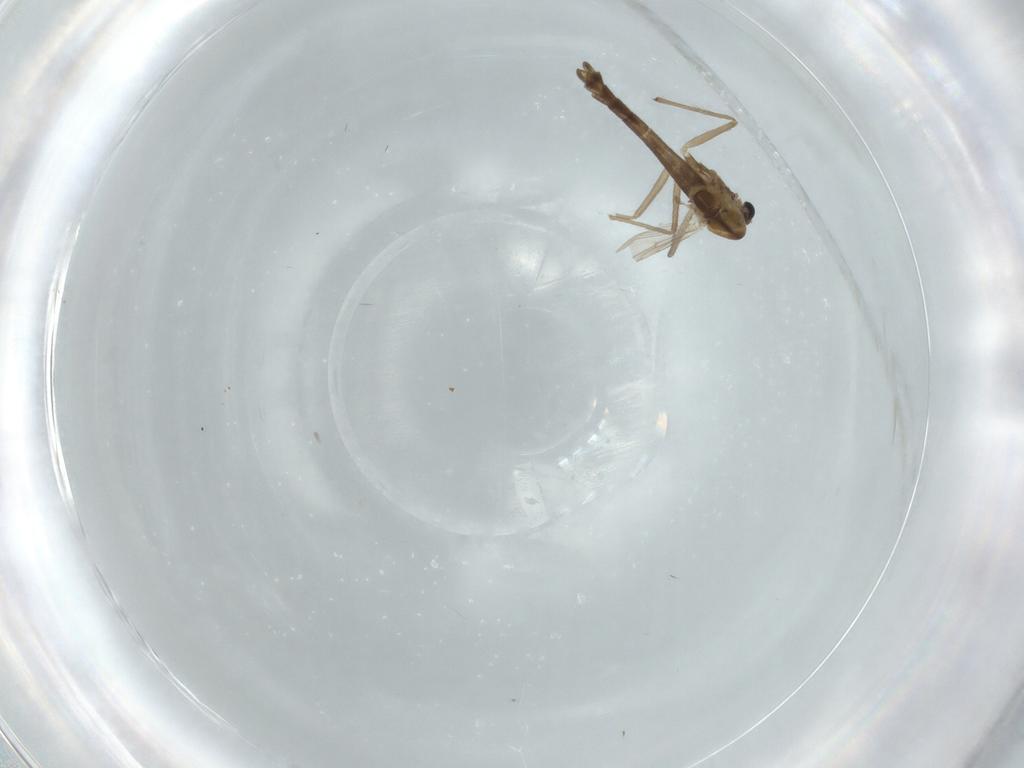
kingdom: Animalia
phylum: Arthropoda
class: Insecta
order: Diptera
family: Chironomidae
